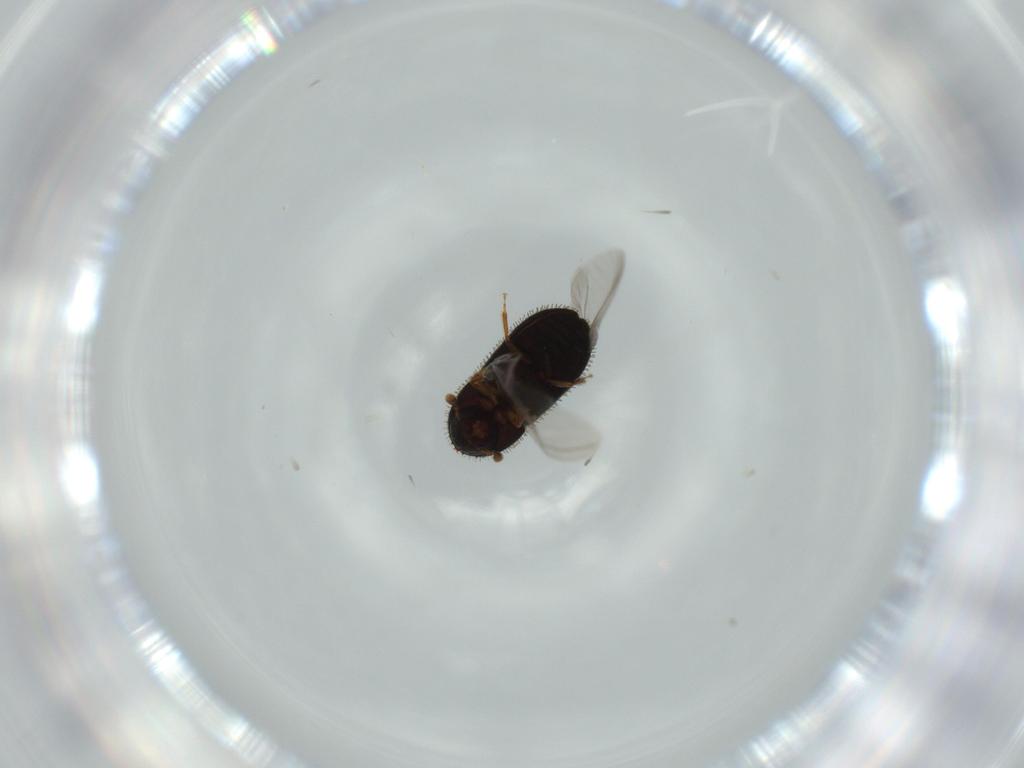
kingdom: Animalia
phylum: Arthropoda
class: Insecta
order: Coleoptera
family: Curculionidae
